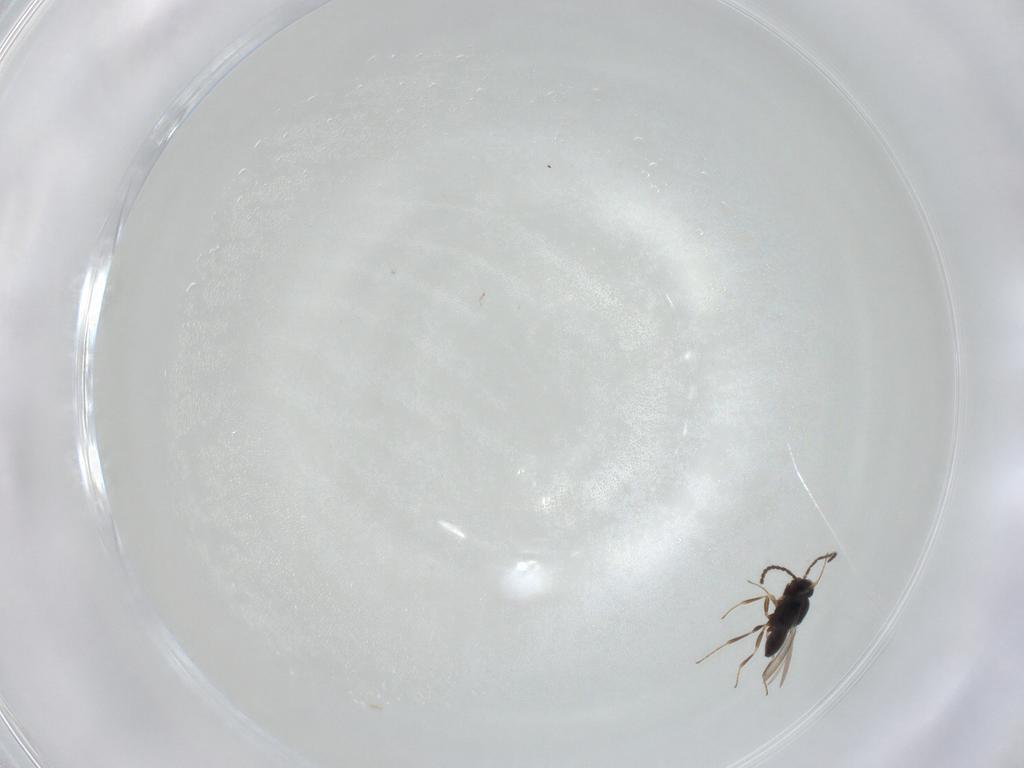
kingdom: Animalia
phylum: Arthropoda
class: Insecta
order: Hymenoptera
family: Scelionidae
